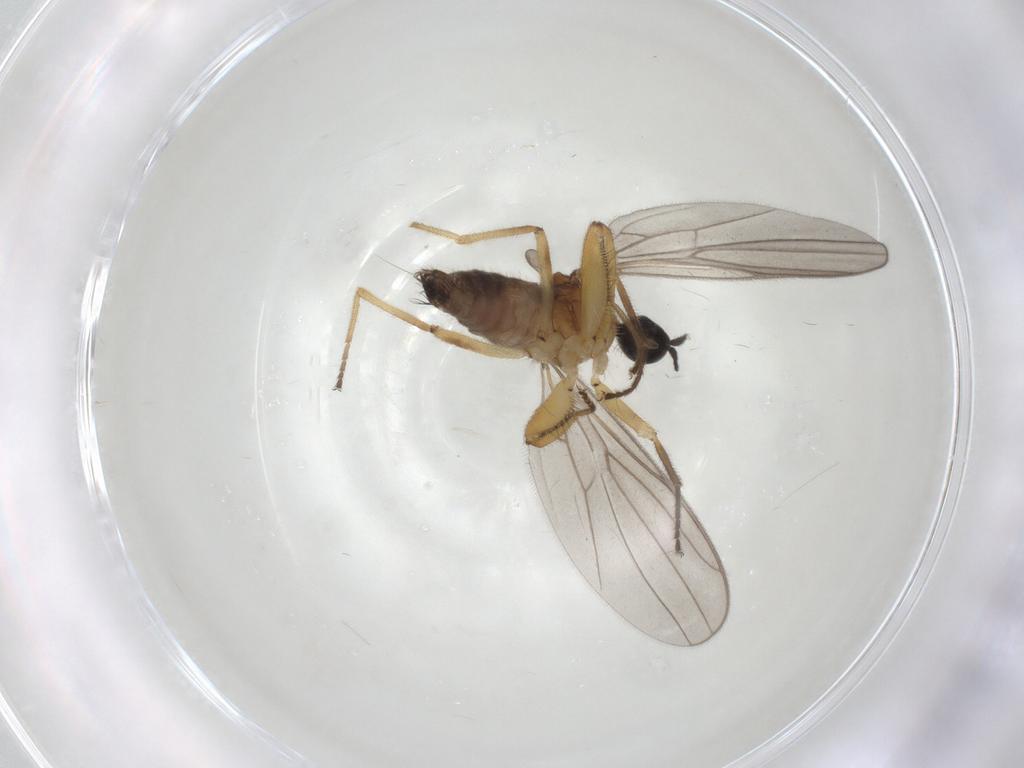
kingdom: Animalia
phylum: Arthropoda
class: Insecta
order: Diptera
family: Hybotidae
